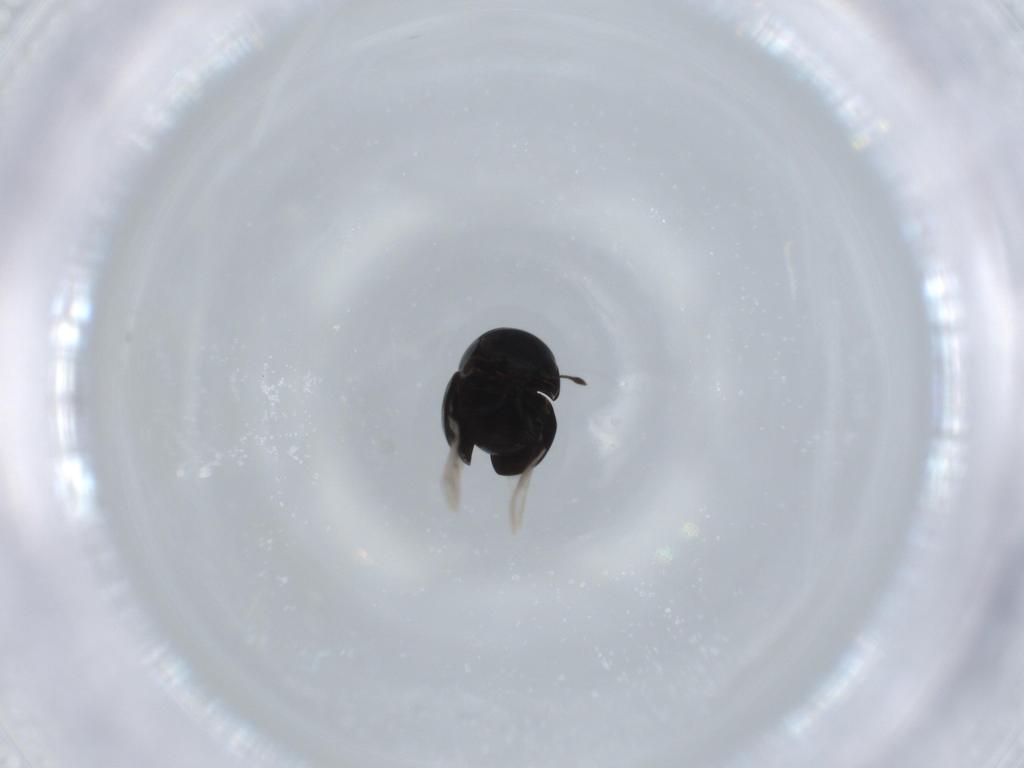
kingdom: Animalia
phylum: Arthropoda
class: Insecta
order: Coleoptera
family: Cybocephalidae
